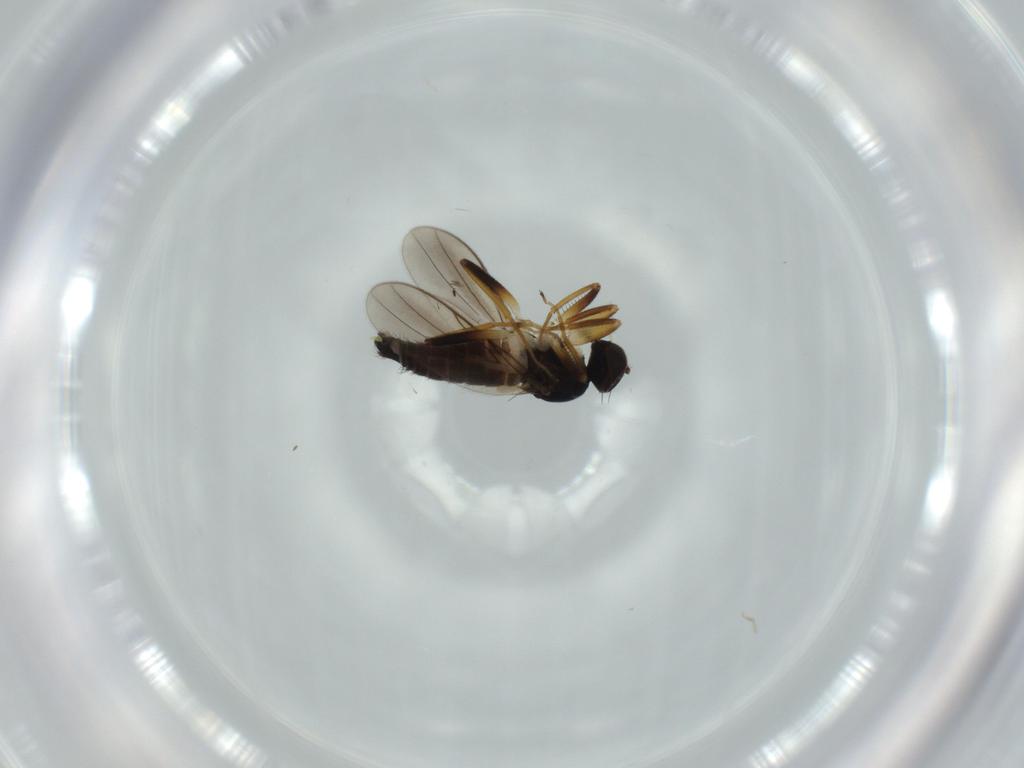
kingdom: Animalia
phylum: Arthropoda
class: Insecta
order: Diptera
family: Hybotidae
